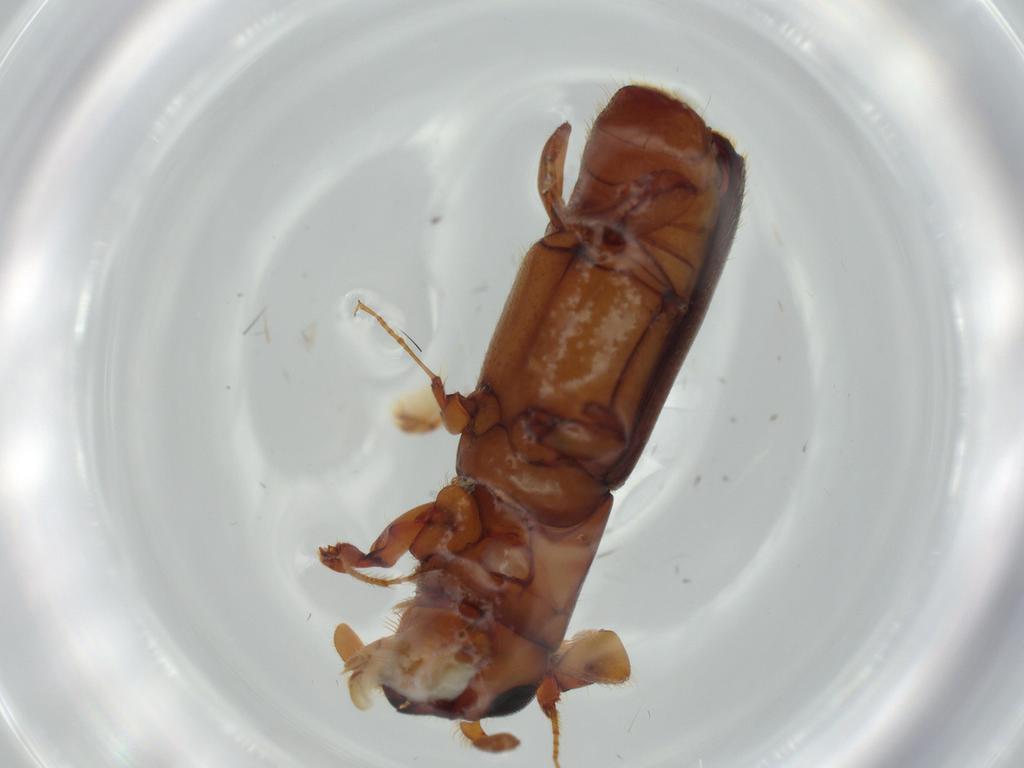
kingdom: Animalia
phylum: Arthropoda
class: Insecta
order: Coleoptera
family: Curculionidae
